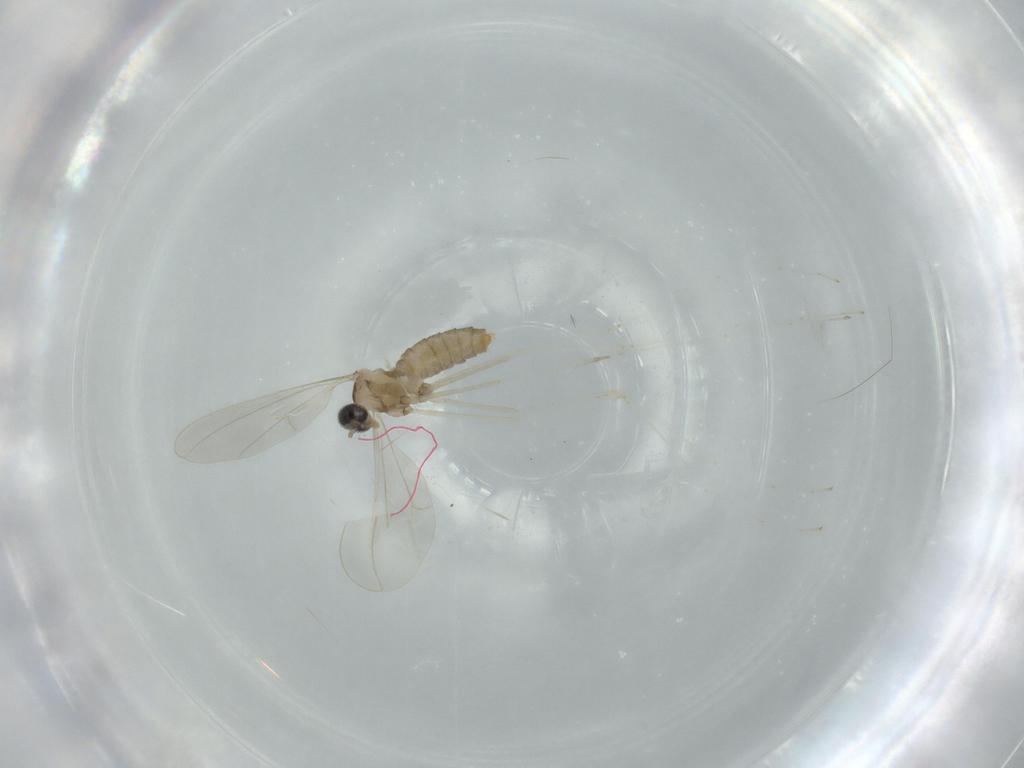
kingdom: Animalia
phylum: Arthropoda
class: Insecta
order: Diptera
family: Cecidomyiidae
